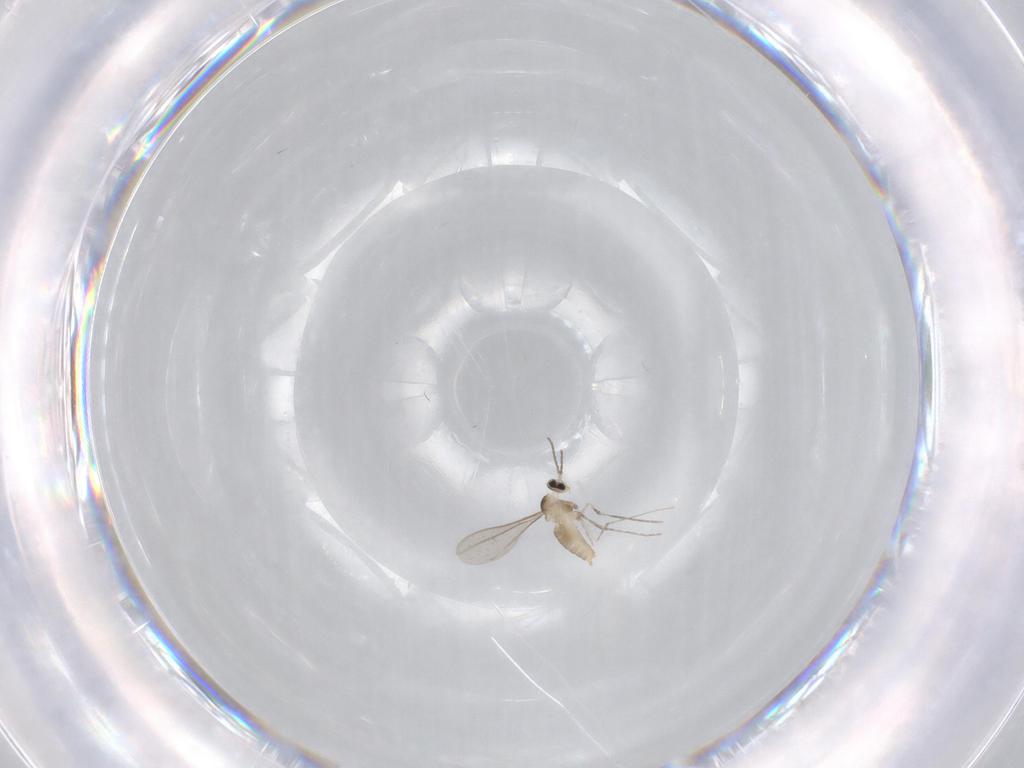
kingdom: Animalia
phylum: Arthropoda
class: Insecta
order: Diptera
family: Cecidomyiidae
